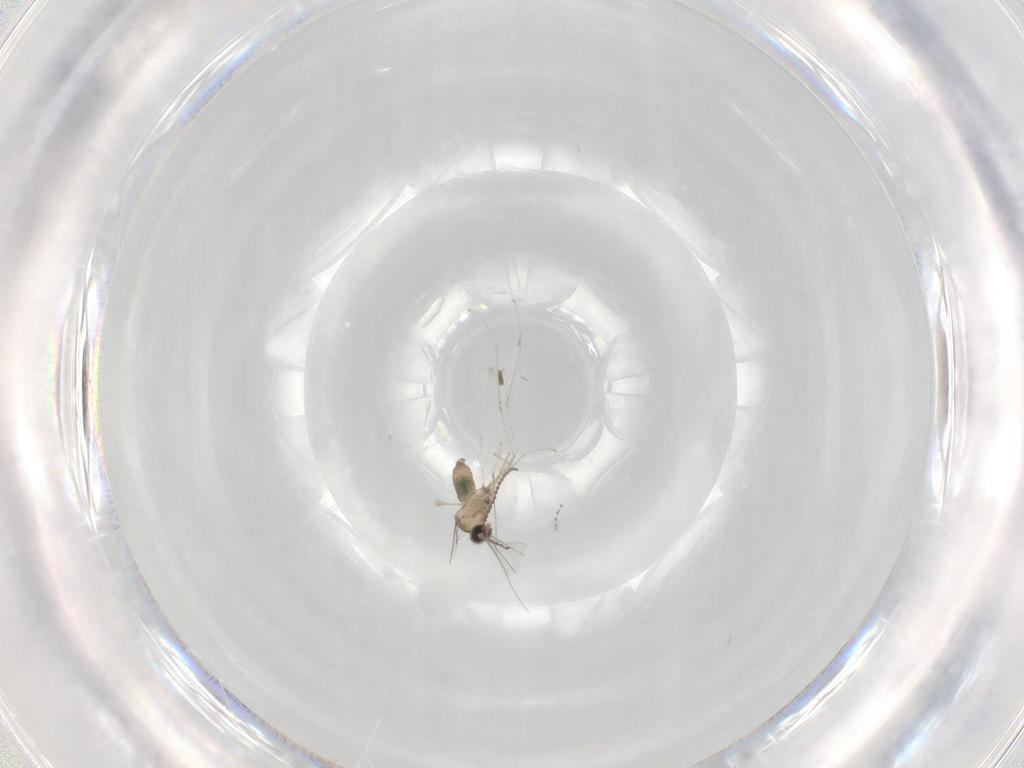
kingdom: Animalia
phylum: Arthropoda
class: Insecta
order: Diptera
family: Cecidomyiidae
